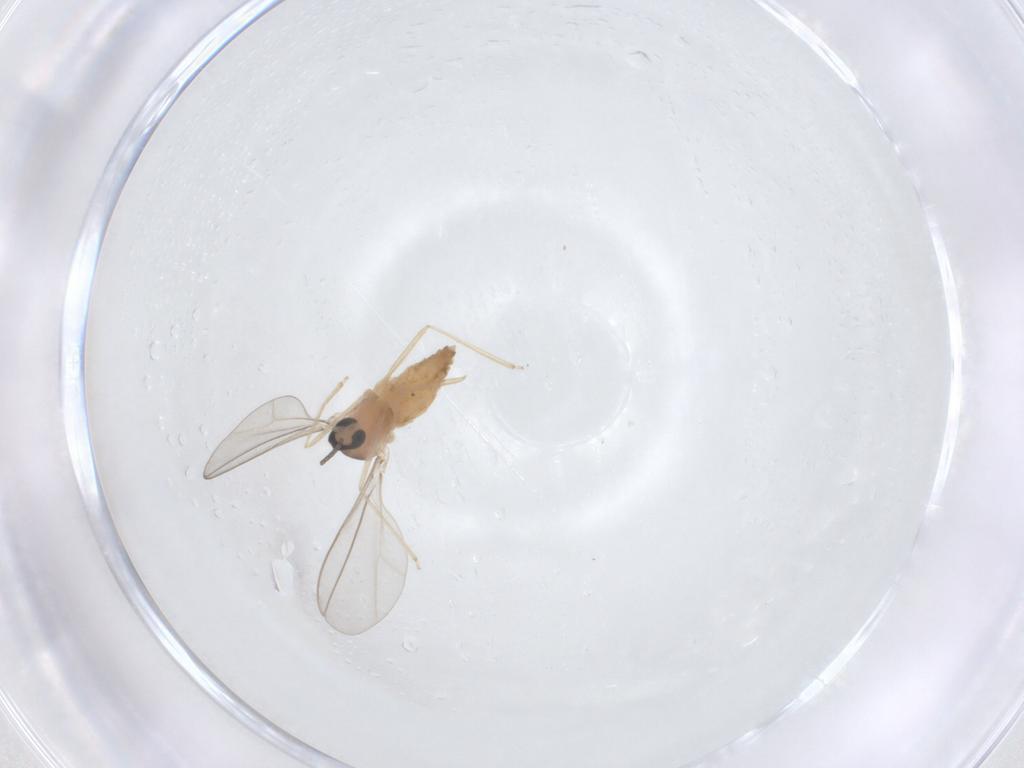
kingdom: Animalia
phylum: Arthropoda
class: Insecta
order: Diptera
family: Cecidomyiidae
